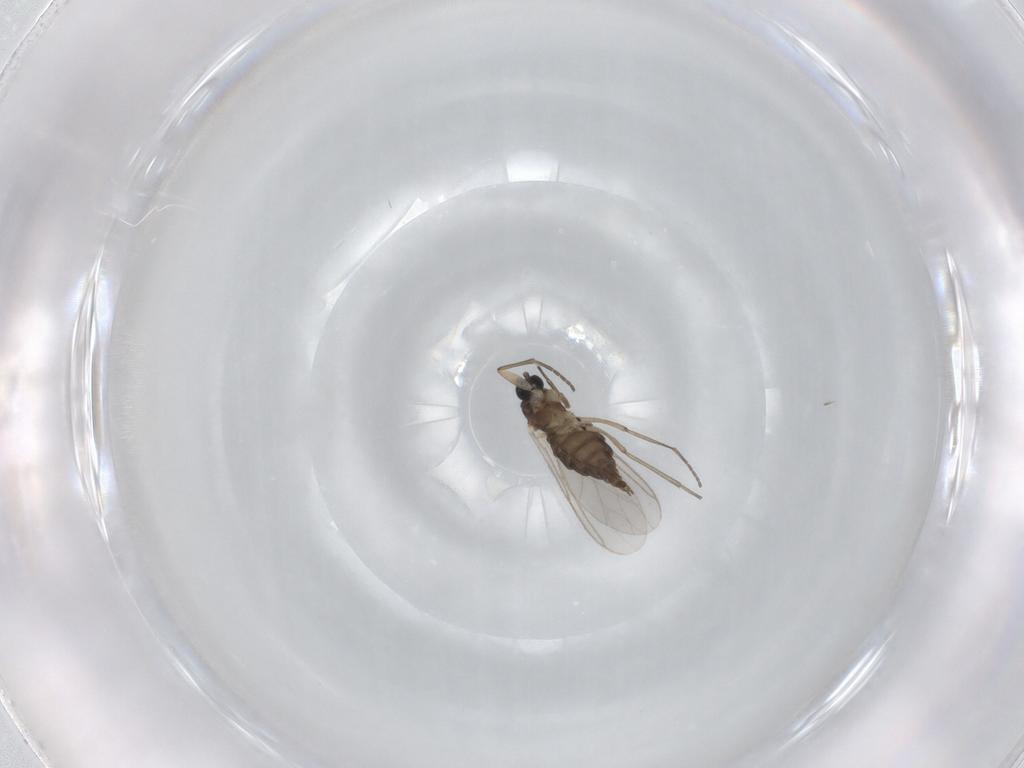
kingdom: Animalia
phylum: Arthropoda
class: Insecta
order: Diptera
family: Sciaridae
